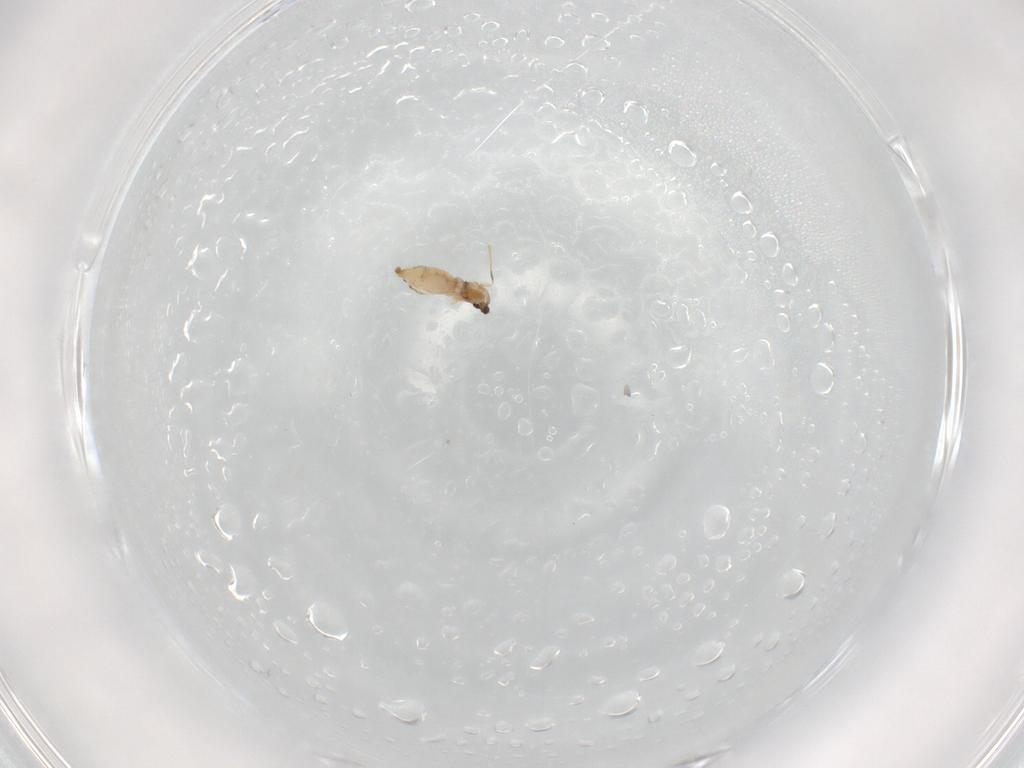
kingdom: Animalia
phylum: Arthropoda
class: Insecta
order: Diptera
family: Cecidomyiidae
